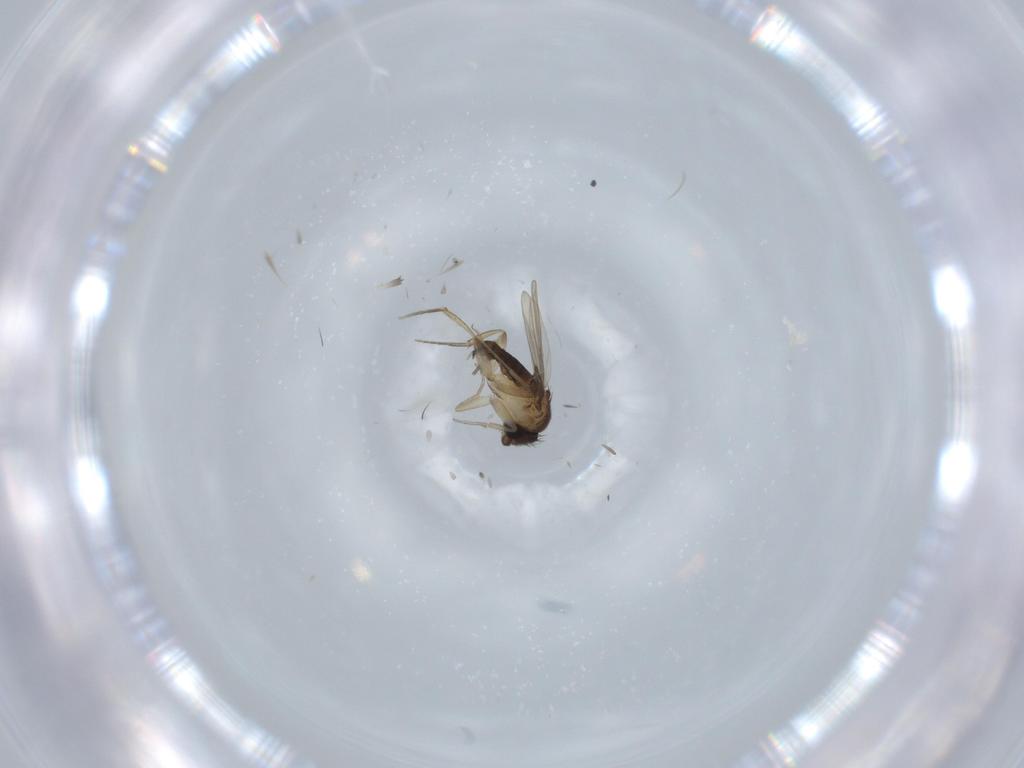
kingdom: Animalia
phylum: Arthropoda
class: Insecta
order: Diptera
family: Phoridae
